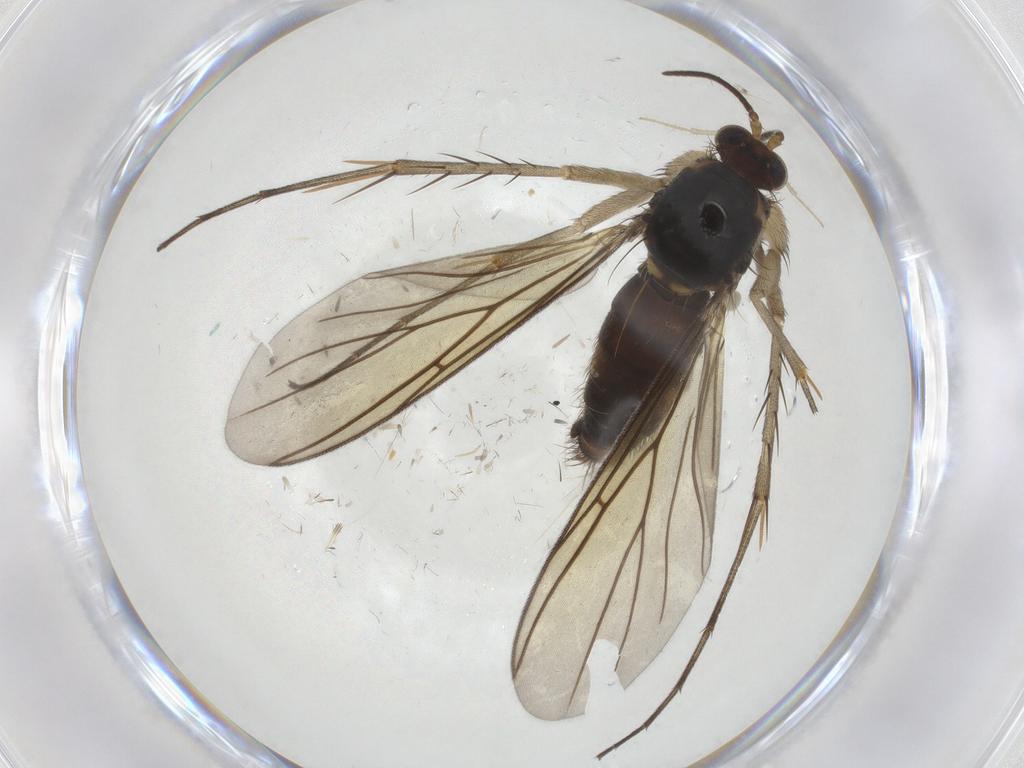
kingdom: Animalia
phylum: Arthropoda
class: Insecta
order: Diptera
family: Mycetophilidae
